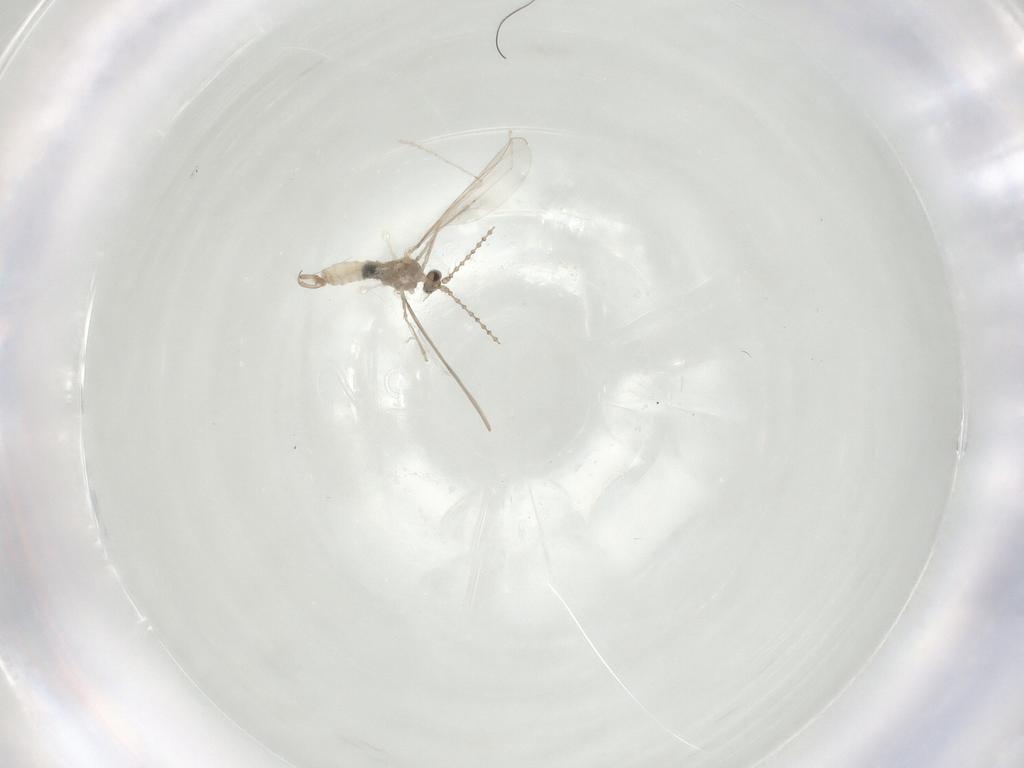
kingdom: Animalia
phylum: Arthropoda
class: Insecta
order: Diptera
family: Cecidomyiidae
